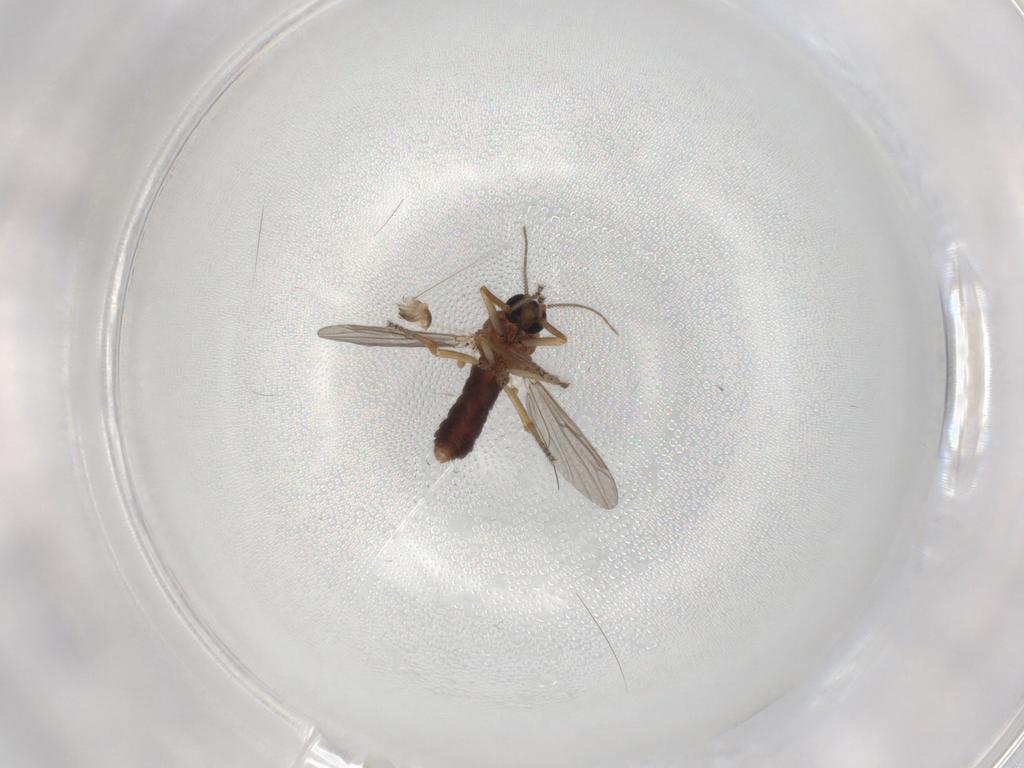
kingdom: Animalia
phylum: Arthropoda
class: Insecta
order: Diptera
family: Ceratopogonidae
